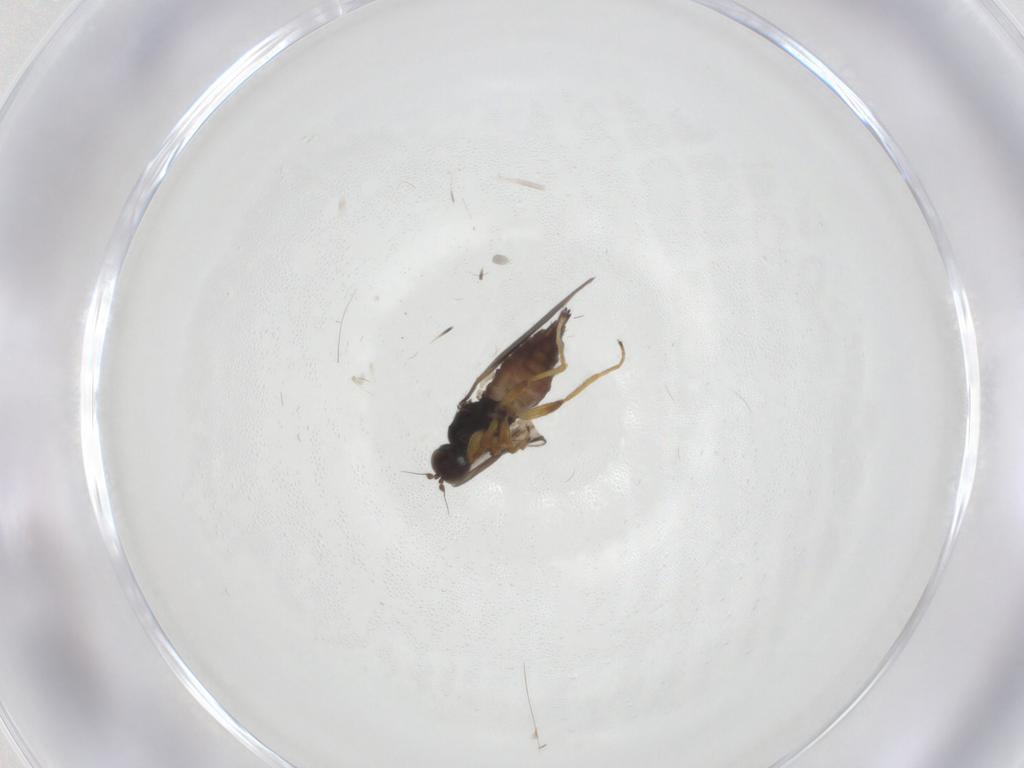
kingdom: Animalia
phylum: Arthropoda
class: Insecta
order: Diptera
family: Hybotidae
